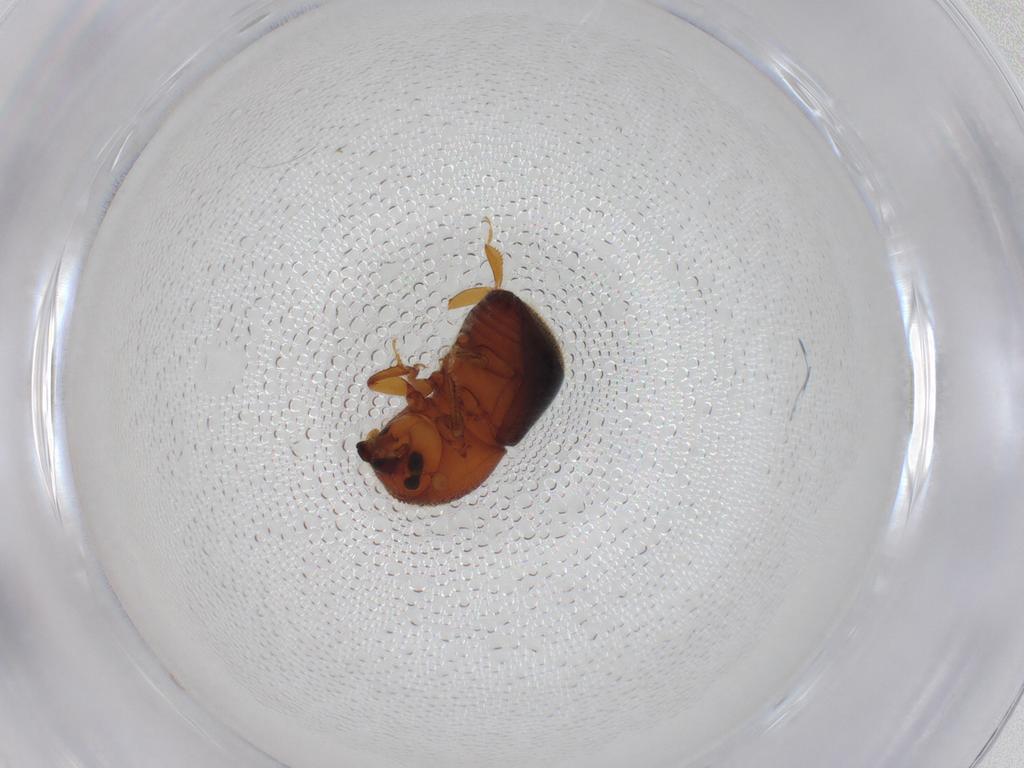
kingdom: Animalia
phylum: Arthropoda
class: Insecta
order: Coleoptera
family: Curculionidae
